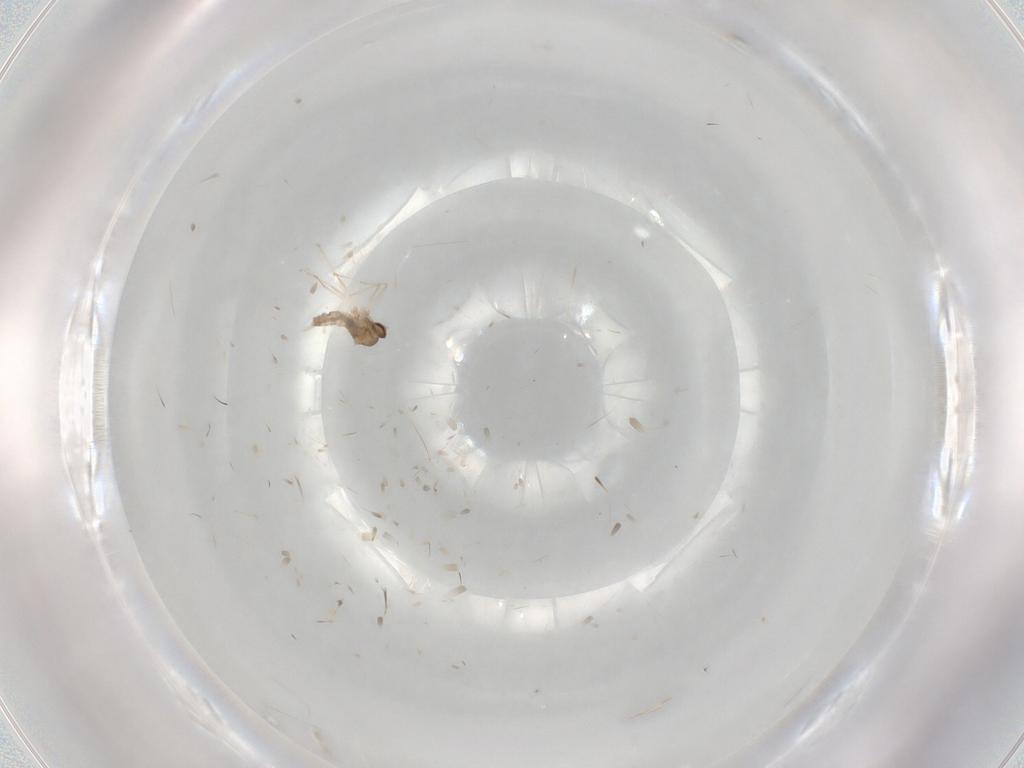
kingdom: Animalia
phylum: Arthropoda
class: Insecta
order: Diptera
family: Cecidomyiidae
